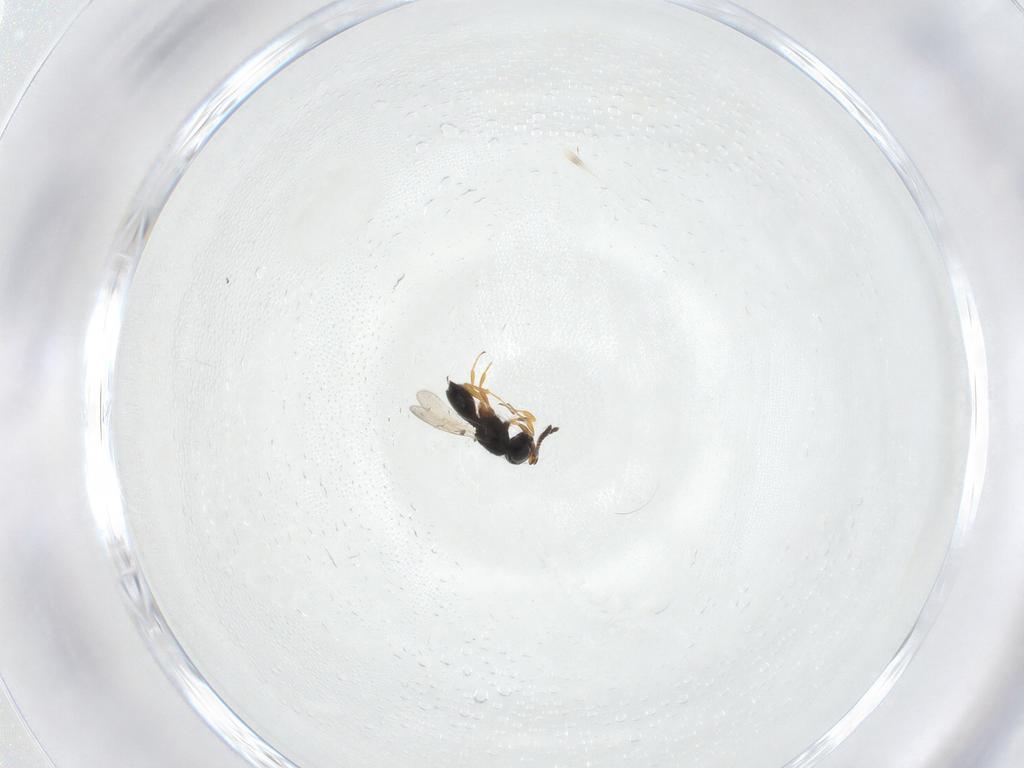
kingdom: Animalia
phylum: Arthropoda
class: Insecta
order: Hymenoptera
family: Scelionidae
